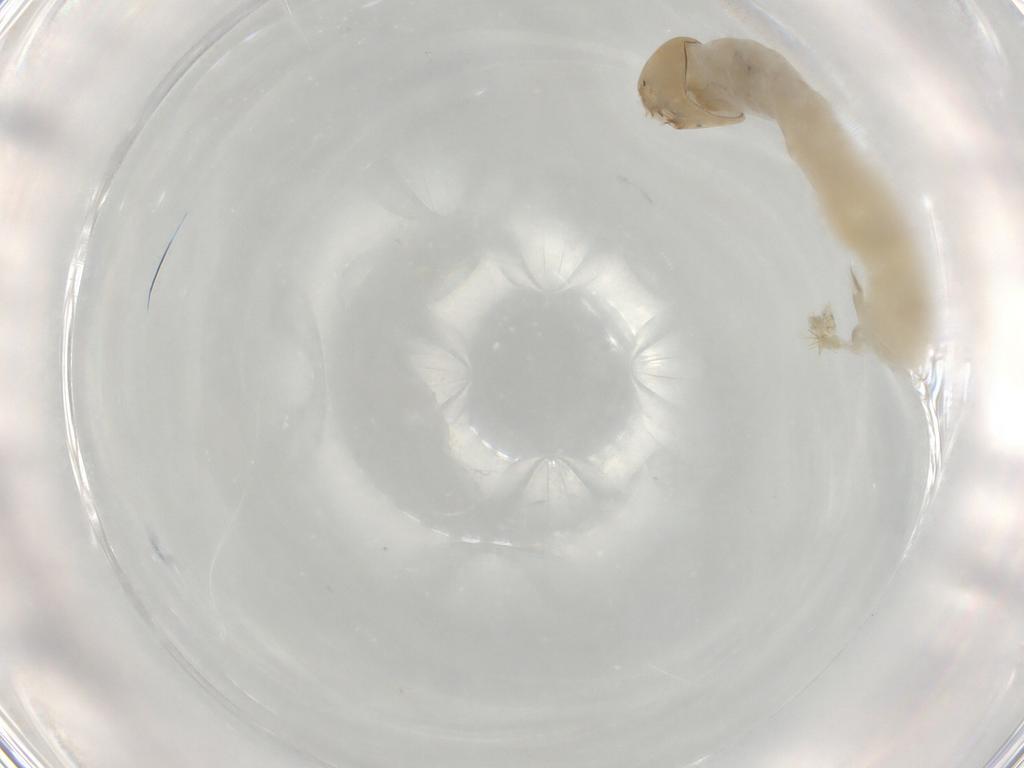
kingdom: Animalia
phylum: Arthropoda
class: Insecta
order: Diptera
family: Chironomidae
